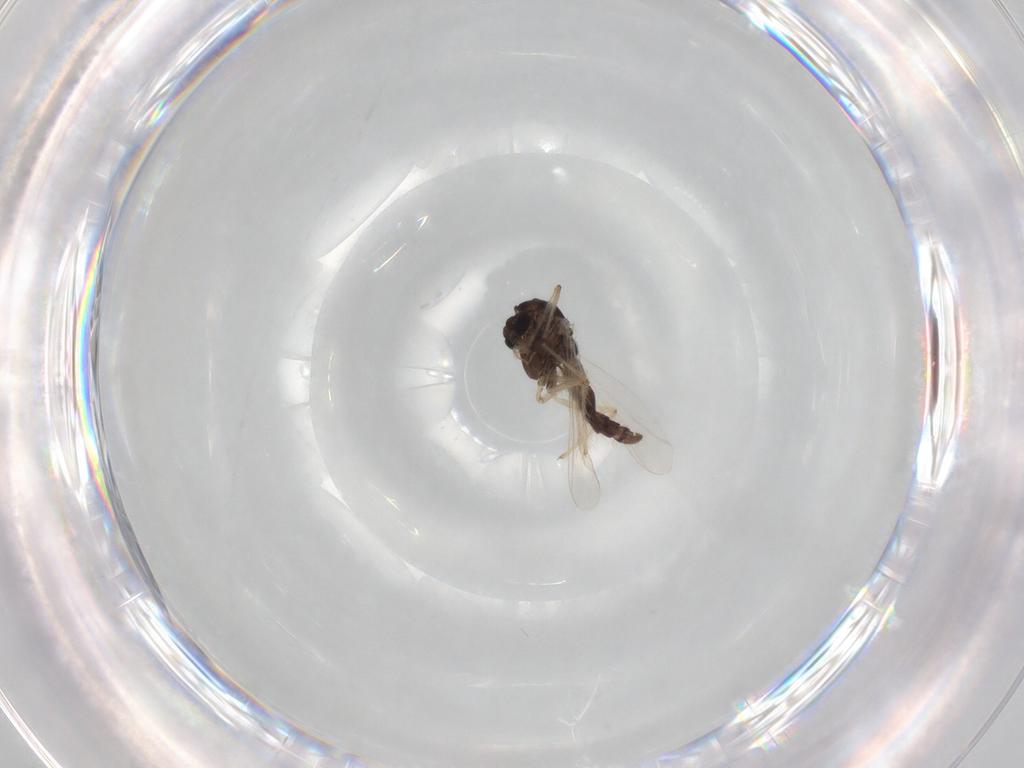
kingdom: Animalia
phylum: Arthropoda
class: Insecta
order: Diptera
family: Chironomidae
